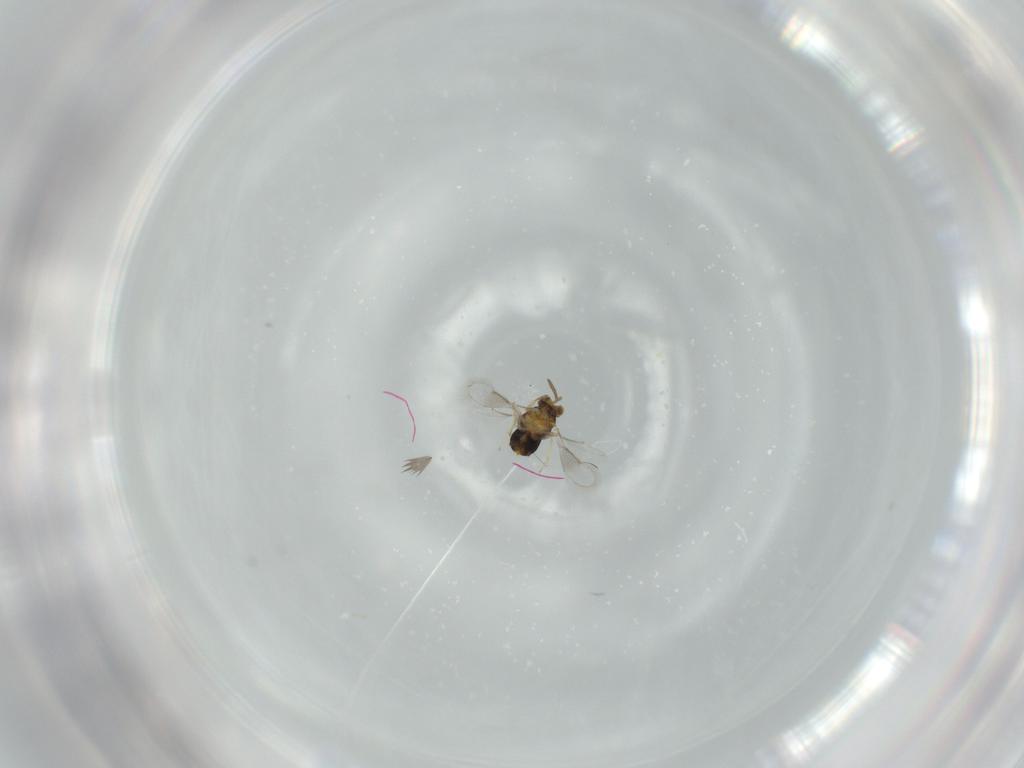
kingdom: Animalia
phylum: Arthropoda
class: Insecta
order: Hymenoptera
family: Aphelinidae
